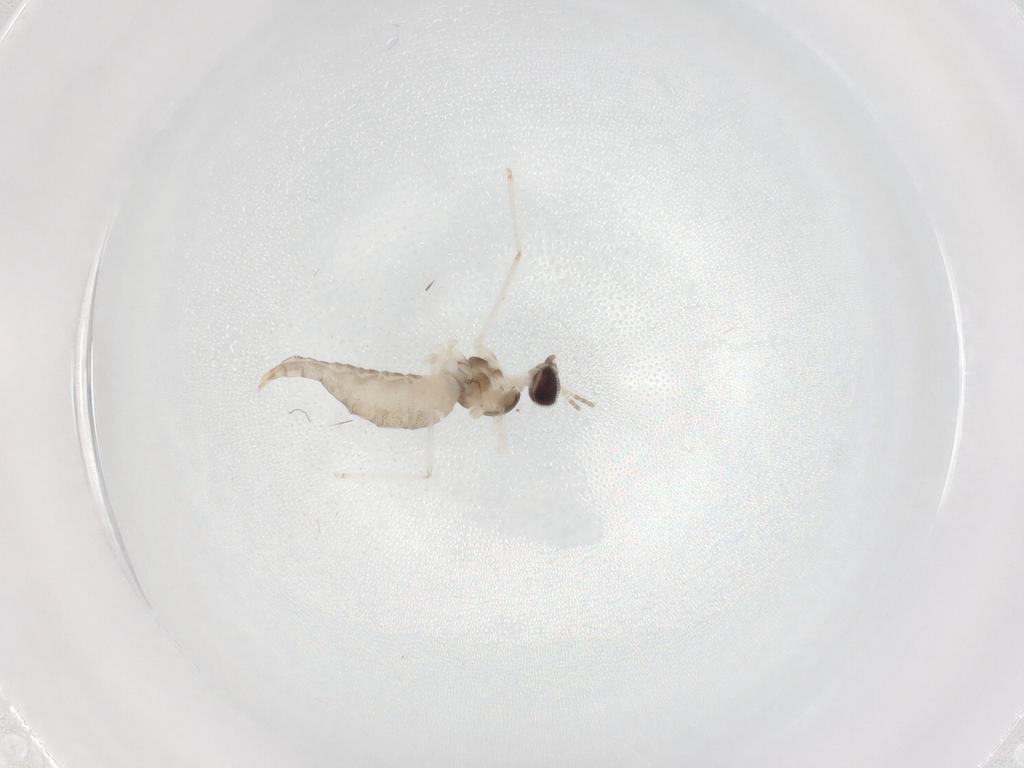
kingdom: Animalia
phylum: Arthropoda
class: Insecta
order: Diptera
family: Cecidomyiidae
